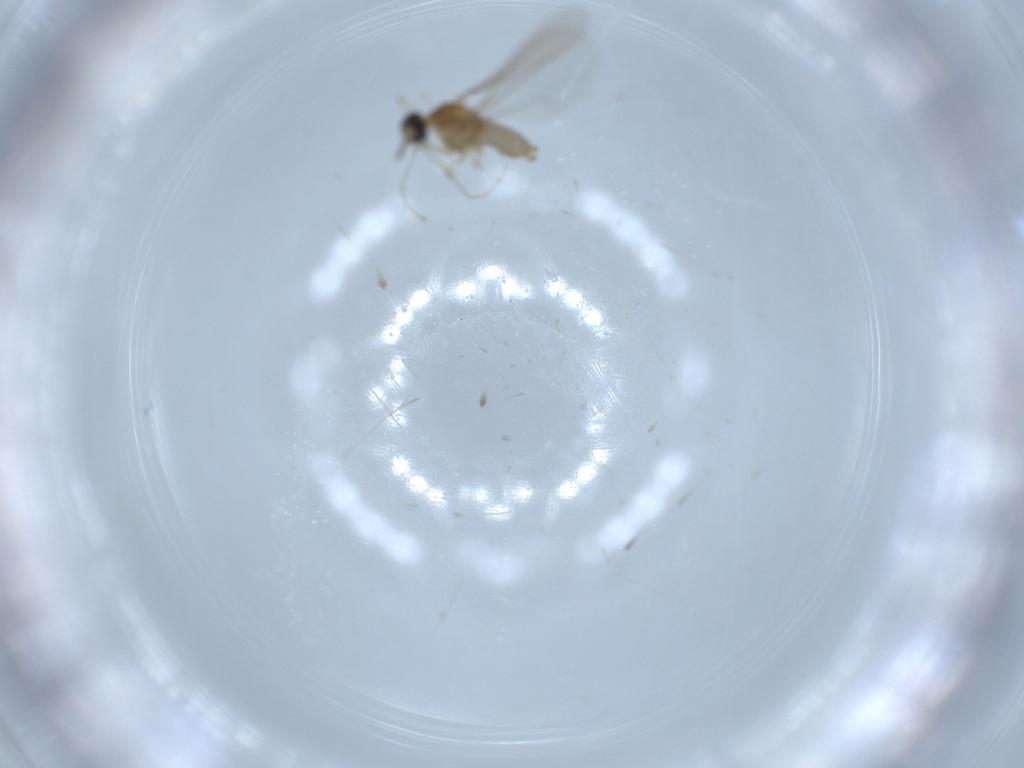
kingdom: Animalia
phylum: Arthropoda
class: Insecta
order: Diptera
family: Cecidomyiidae
